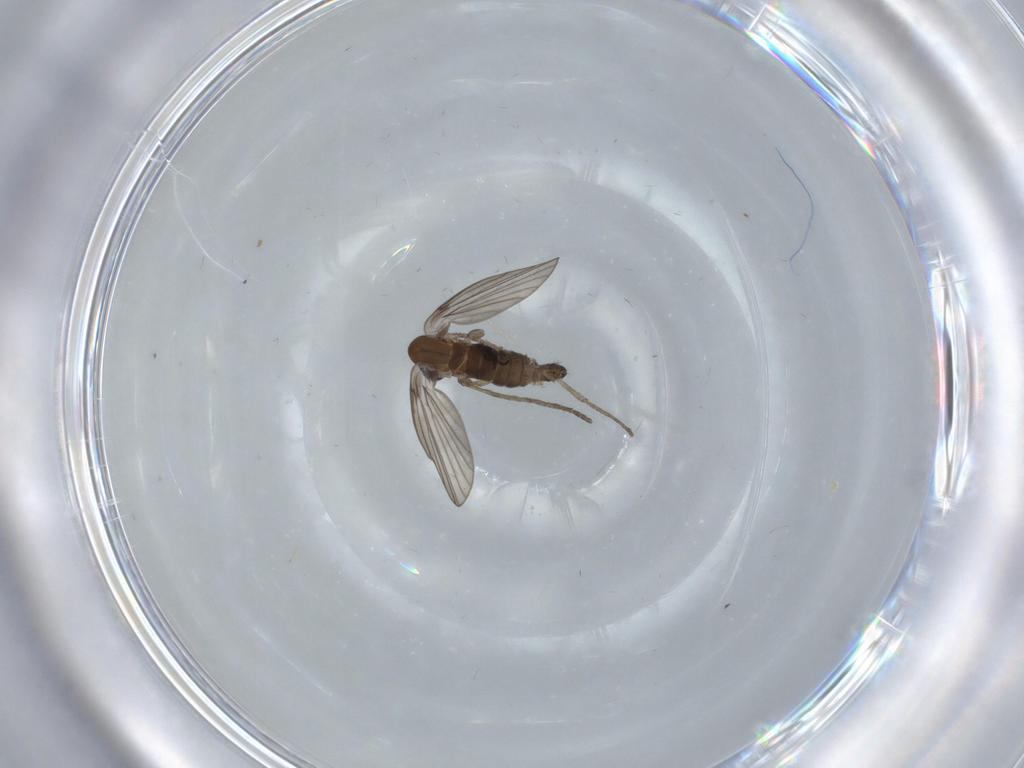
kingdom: Animalia
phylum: Arthropoda
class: Insecta
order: Diptera
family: Psychodidae
